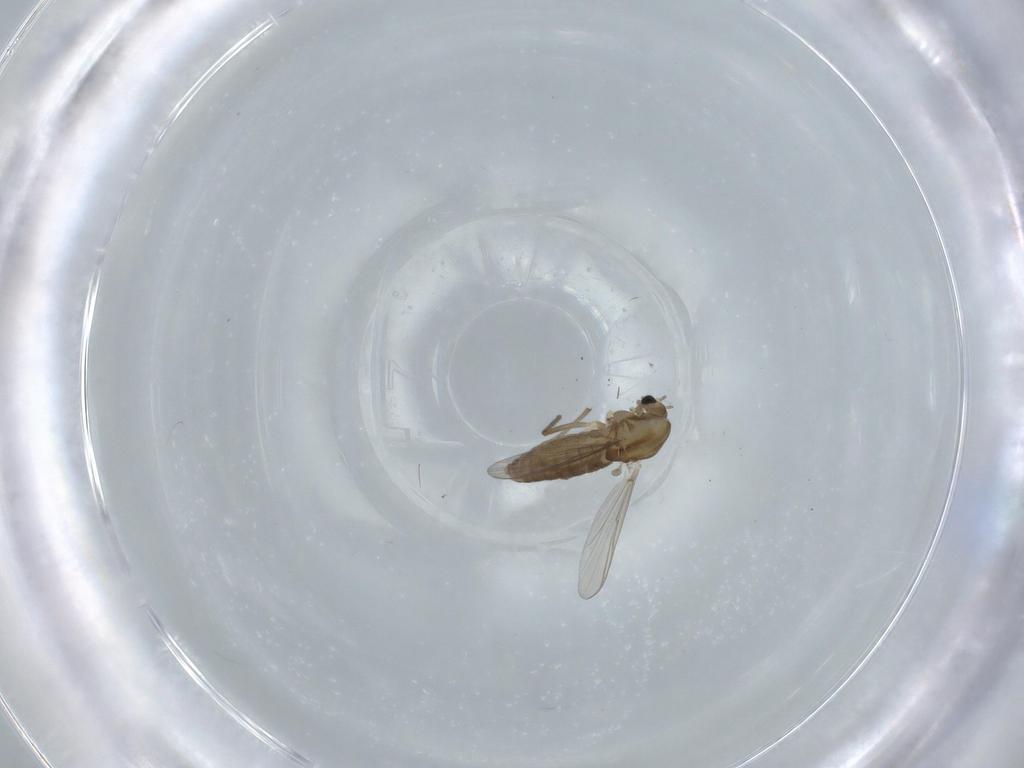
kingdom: Animalia
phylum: Arthropoda
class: Insecta
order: Diptera
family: Chironomidae
